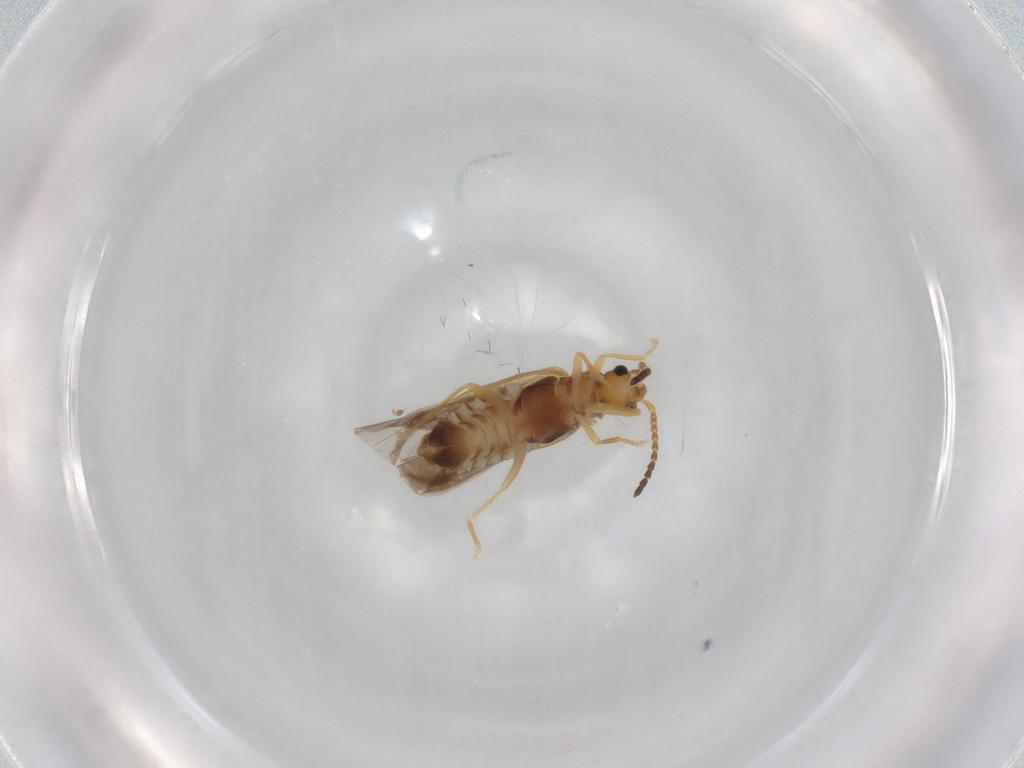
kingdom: Animalia
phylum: Arthropoda
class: Insecta
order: Coleoptera
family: Cantharidae
